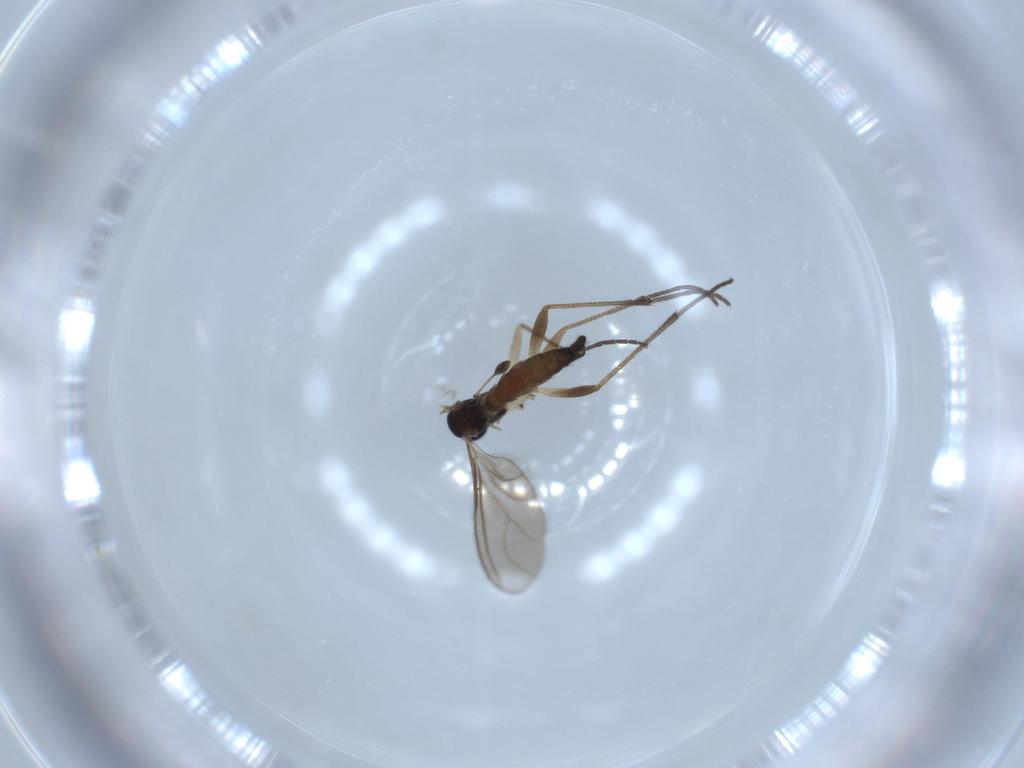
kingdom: Animalia
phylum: Arthropoda
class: Insecta
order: Diptera
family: Sciaridae
